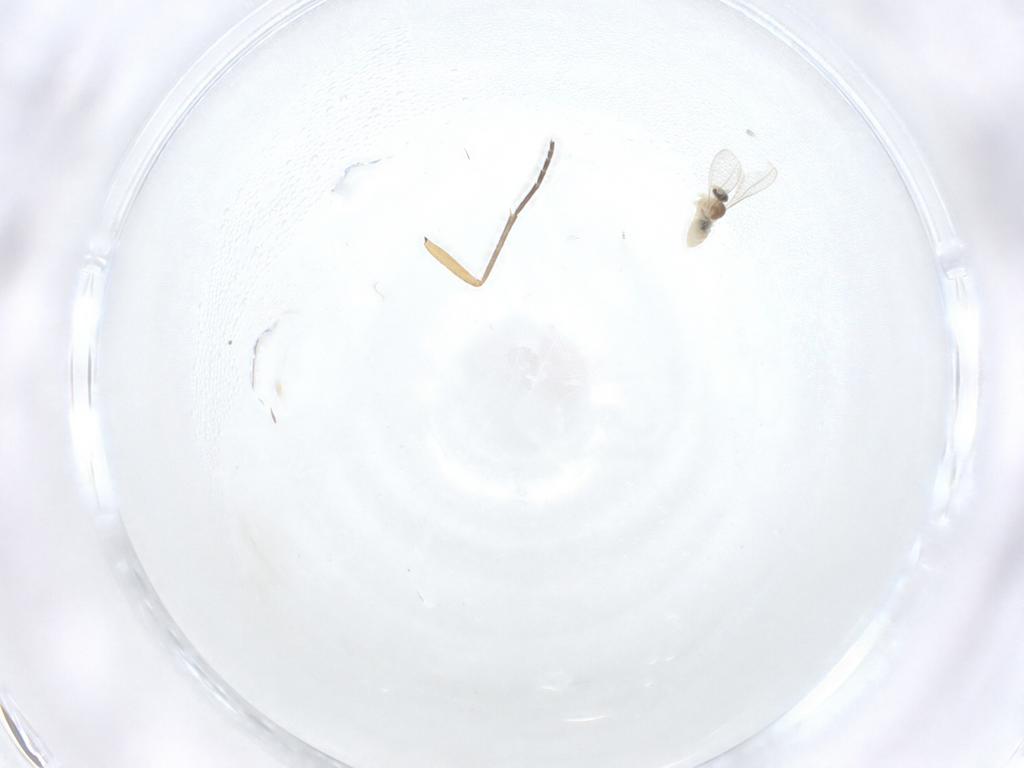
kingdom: Animalia
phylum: Arthropoda
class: Insecta
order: Diptera
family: Cecidomyiidae
